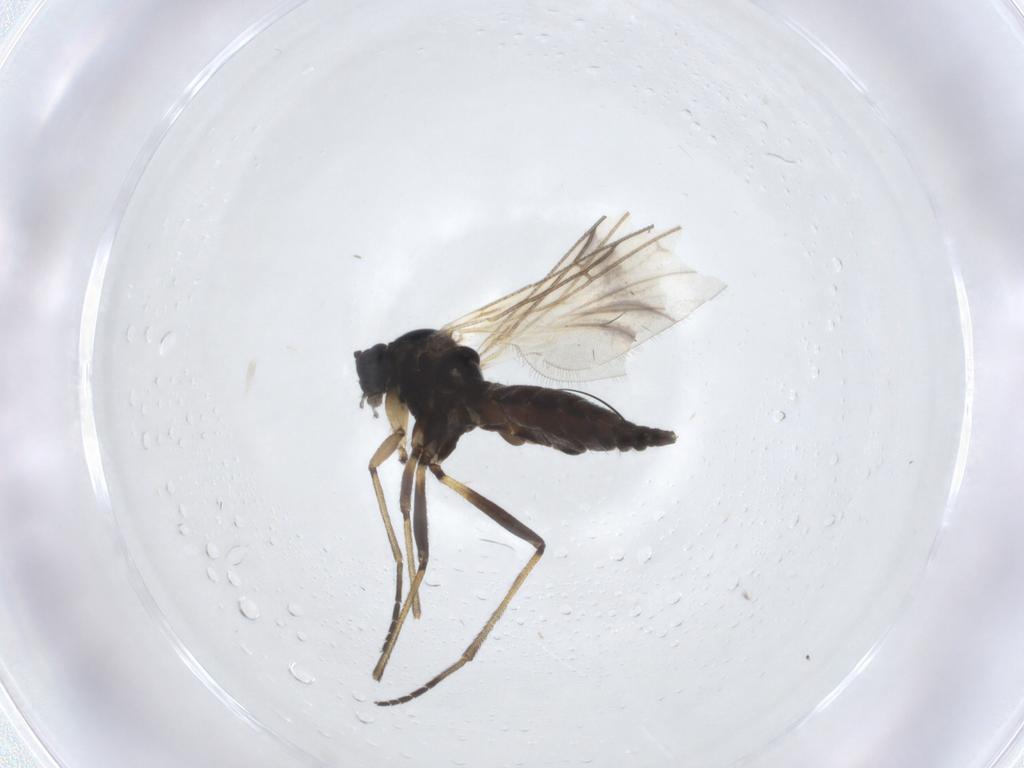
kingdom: Animalia
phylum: Arthropoda
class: Insecta
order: Diptera
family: Sciaridae
